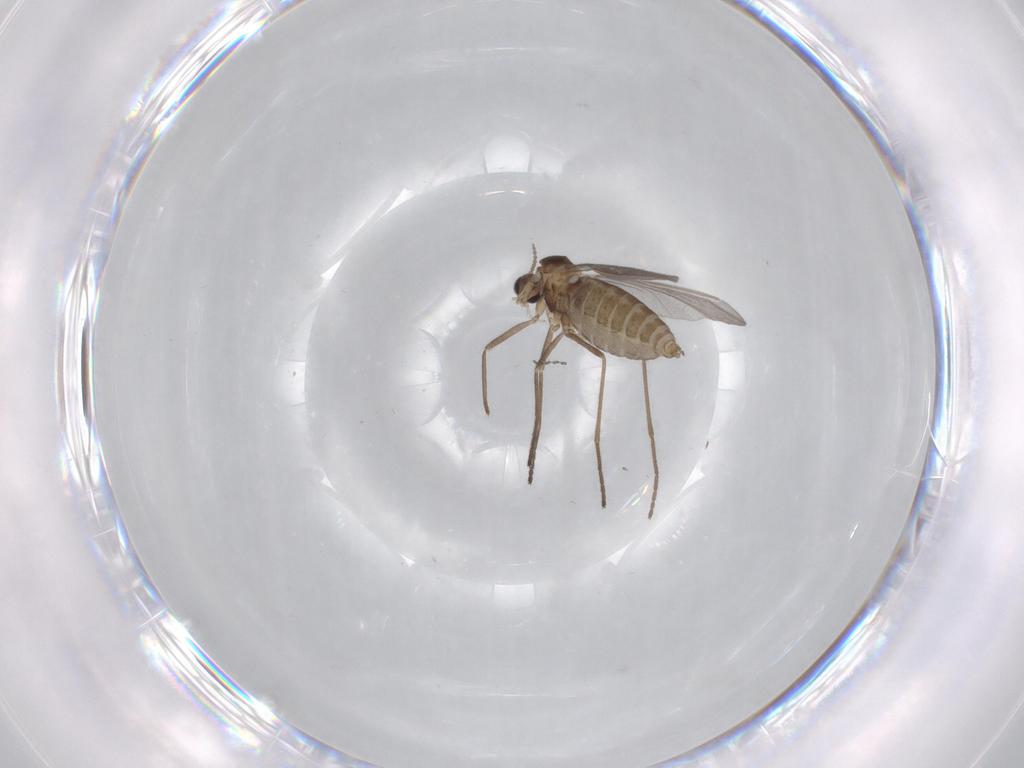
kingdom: Animalia
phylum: Arthropoda
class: Insecta
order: Diptera
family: Cecidomyiidae
